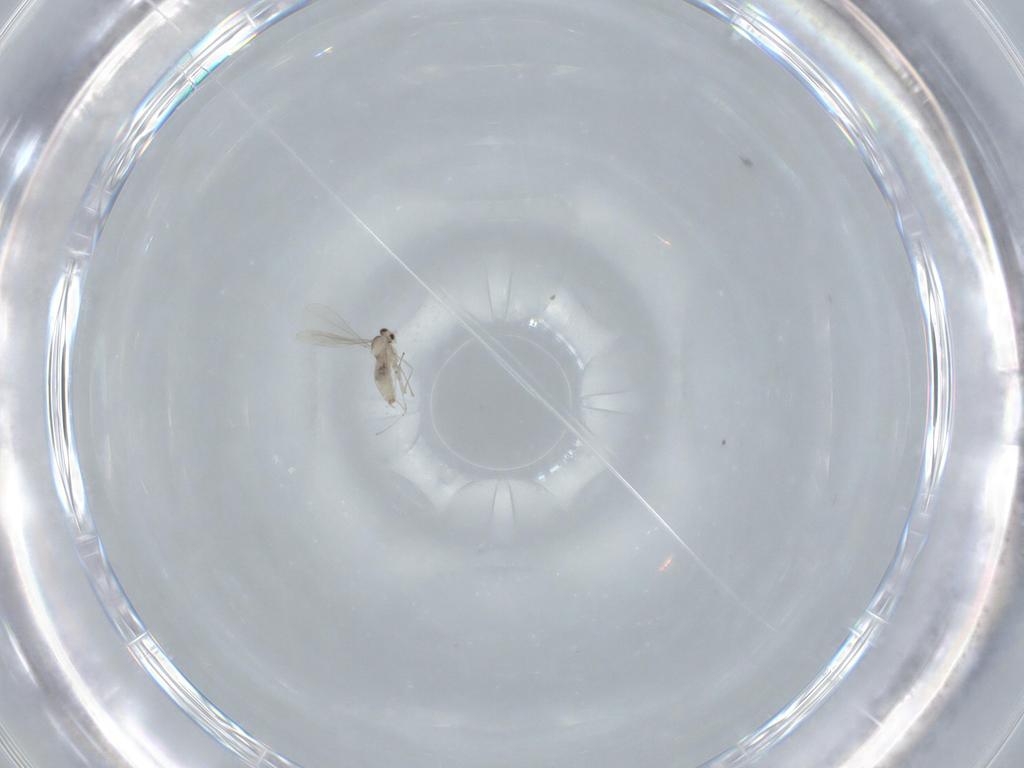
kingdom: Animalia
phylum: Arthropoda
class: Insecta
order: Diptera
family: Cecidomyiidae
